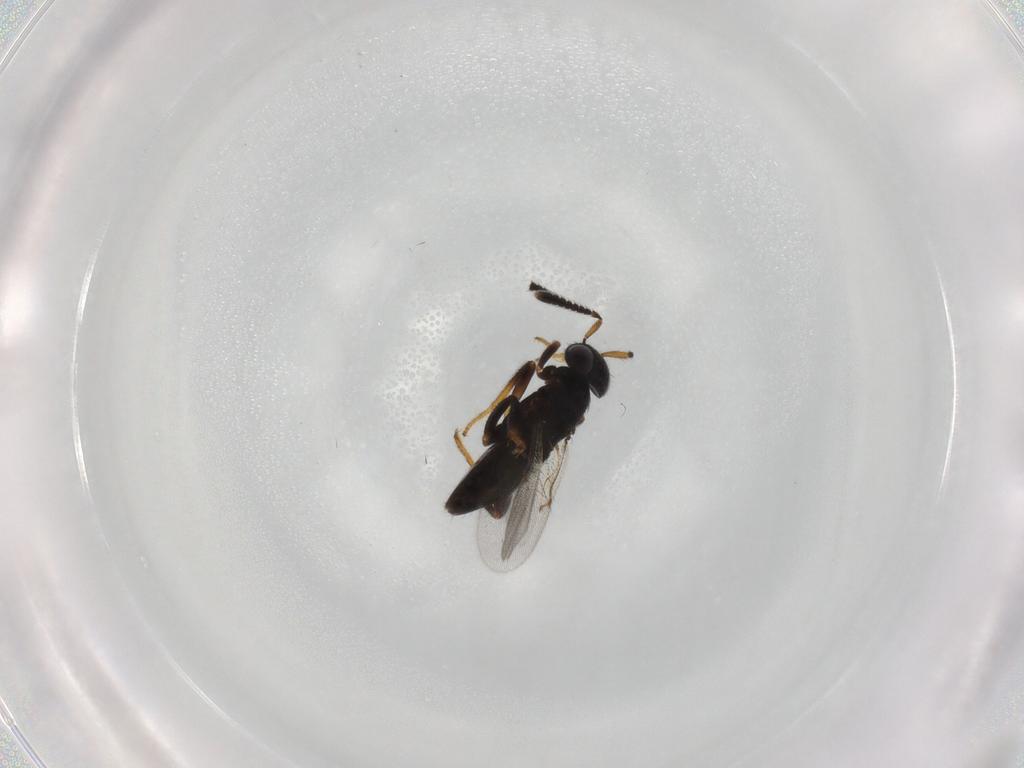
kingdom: Animalia
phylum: Arthropoda
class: Insecta
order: Hymenoptera
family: Encyrtidae
